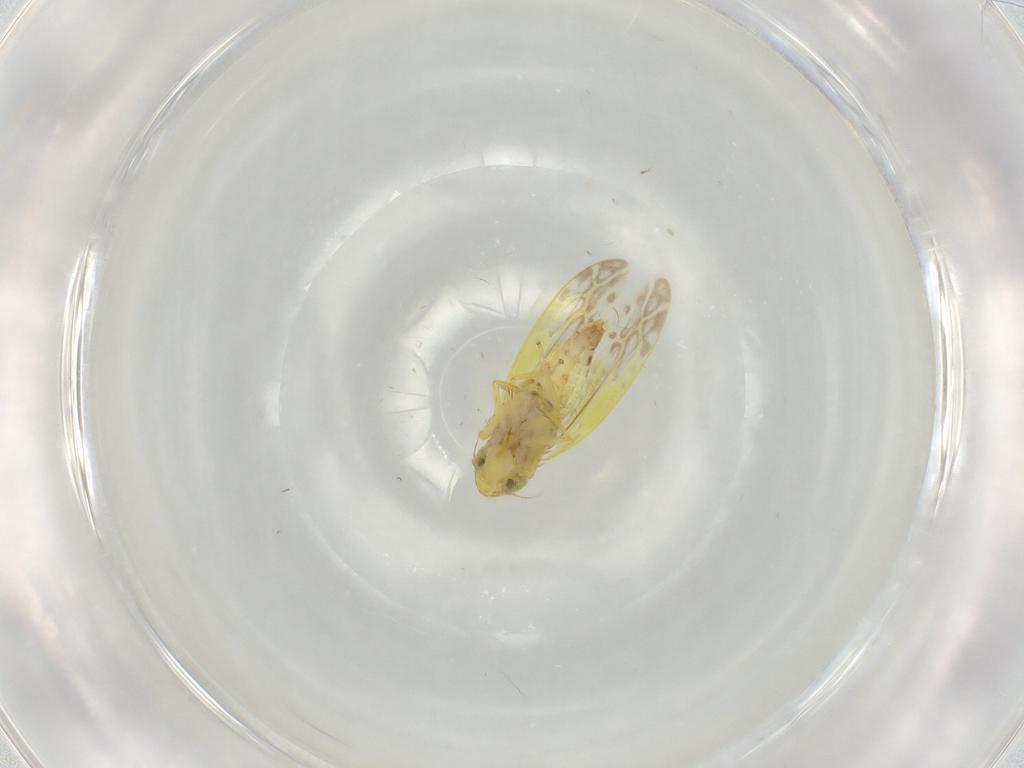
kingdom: Animalia
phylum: Arthropoda
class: Insecta
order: Hemiptera
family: Cicadellidae
